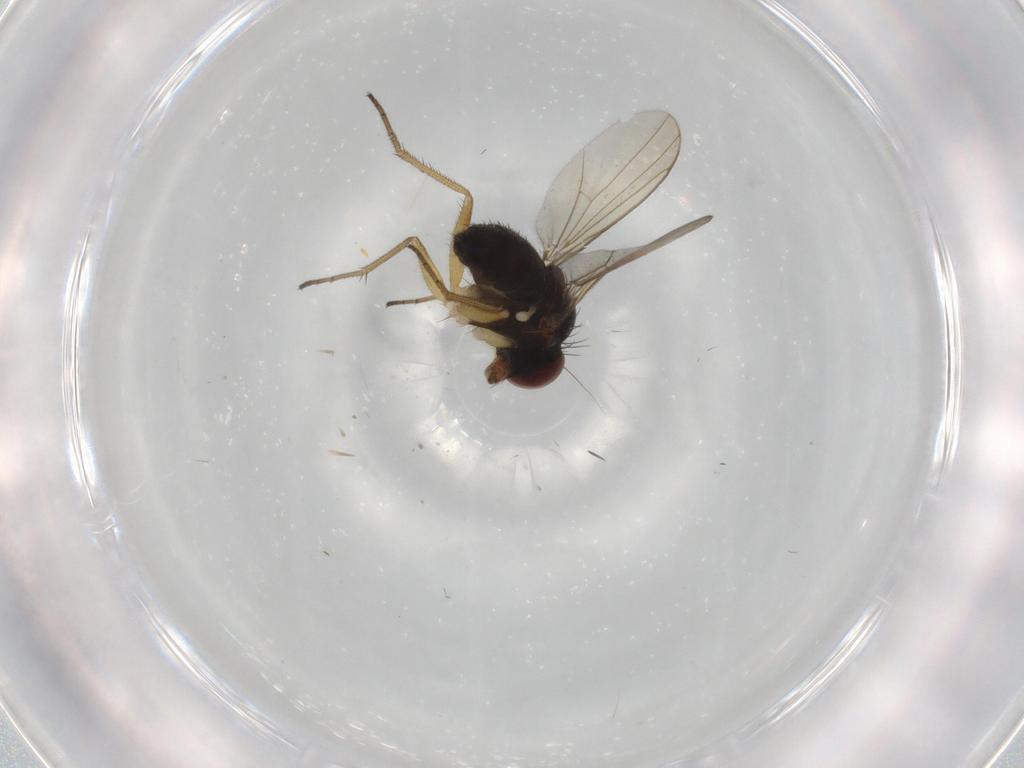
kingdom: Animalia
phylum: Arthropoda
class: Insecta
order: Diptera
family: Dolichopodidae
